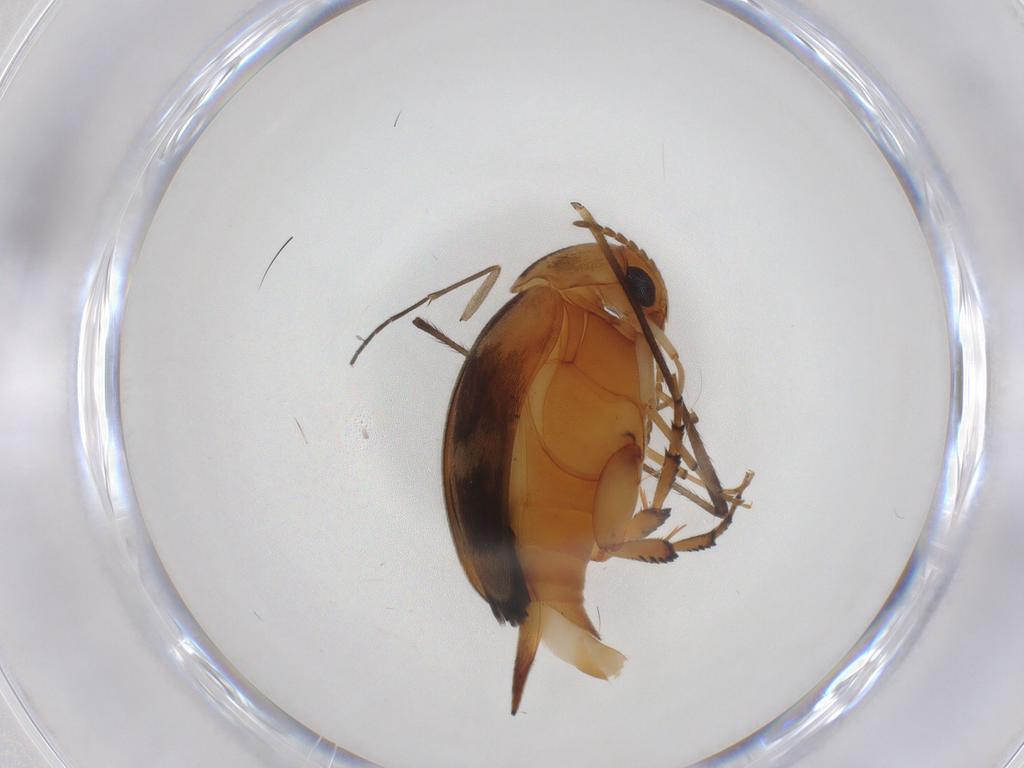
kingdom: Animalia
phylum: Arthropoda
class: Insecta
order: Coleoptera
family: Mordellidae
